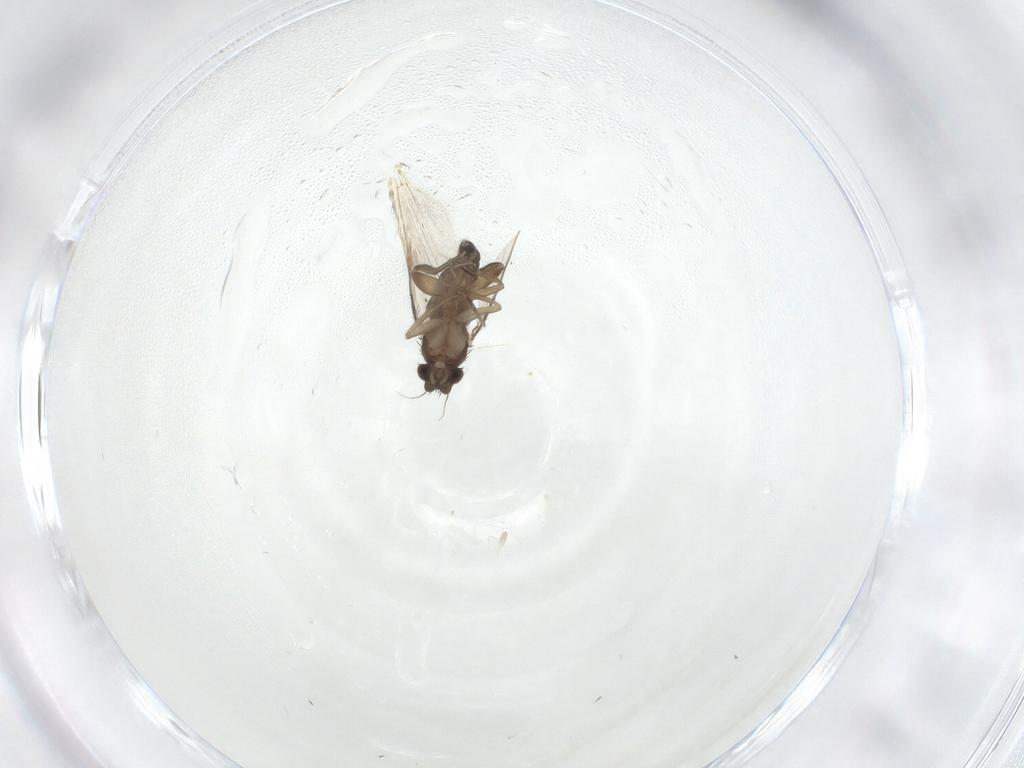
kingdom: Animalia
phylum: Arthropoda
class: Insecta
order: Diptera
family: Phoridae
